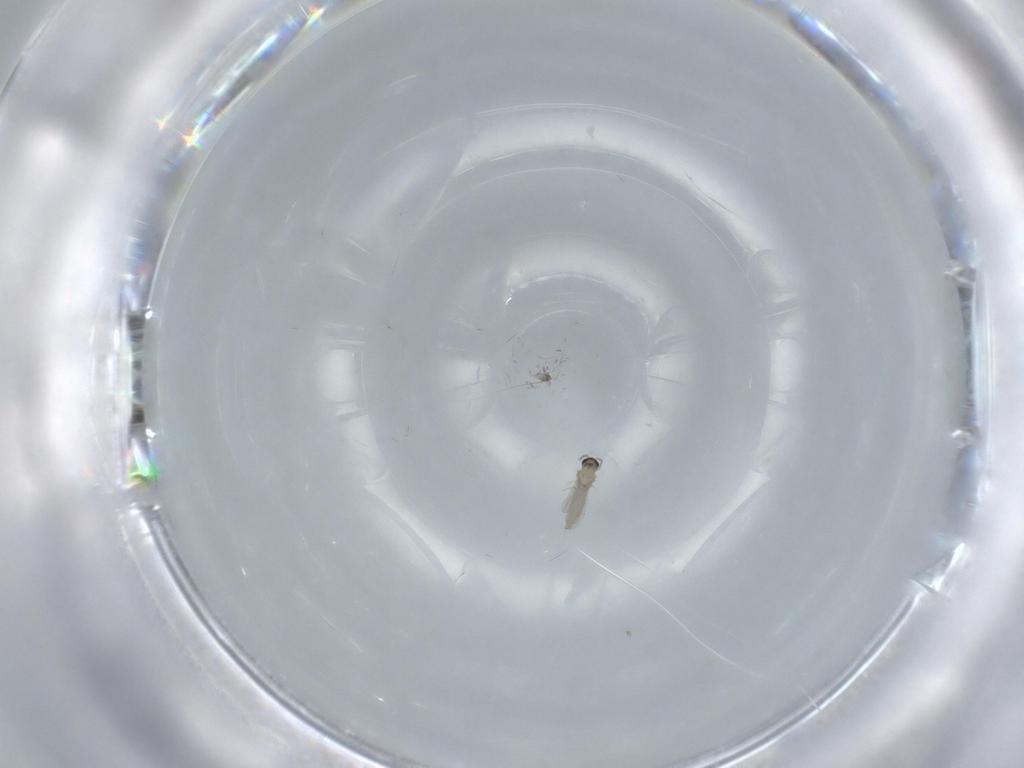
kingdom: Animalia
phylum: Arthropoda
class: Insecta
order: Diptera
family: Cecidomyiidae
